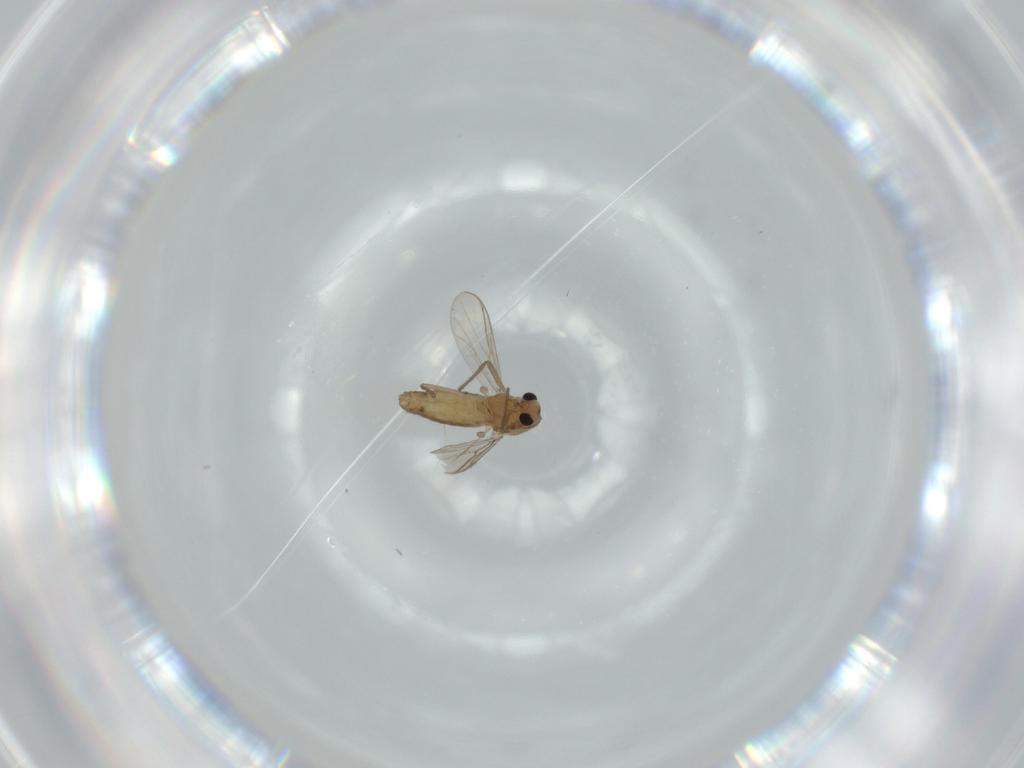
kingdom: Animalia
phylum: Arthropoda
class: Insecta
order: Diptera
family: Chironomidae
